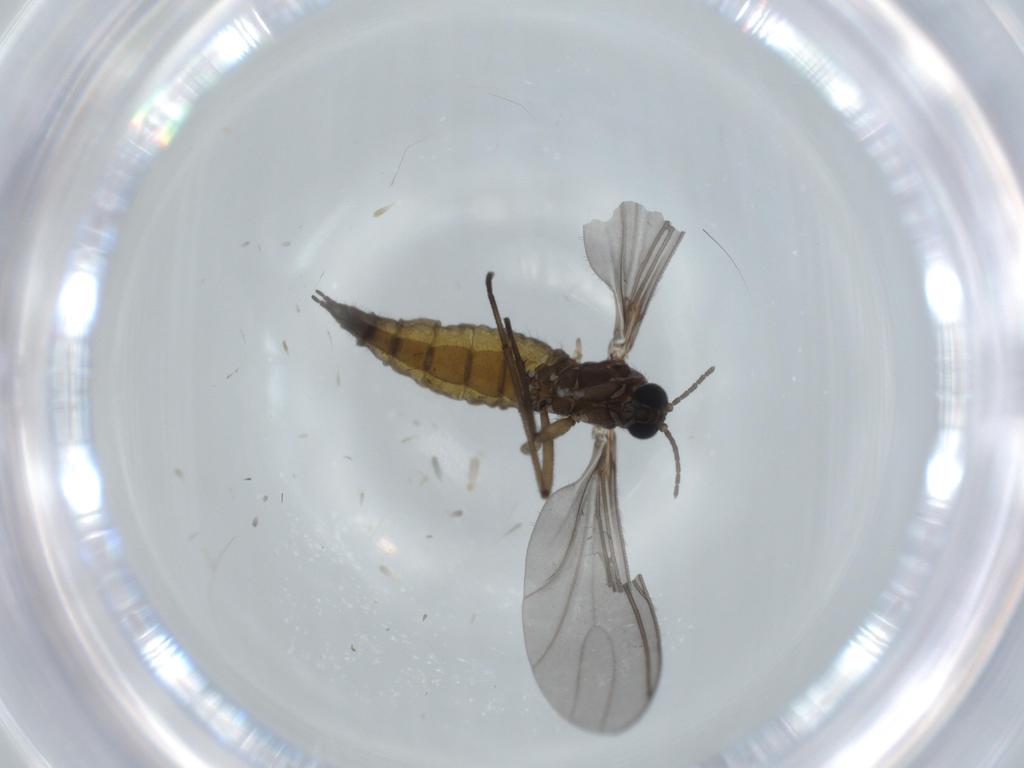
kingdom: Animalia
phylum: Arthropoda
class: Insecta
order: Diptera
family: Sciaridae
